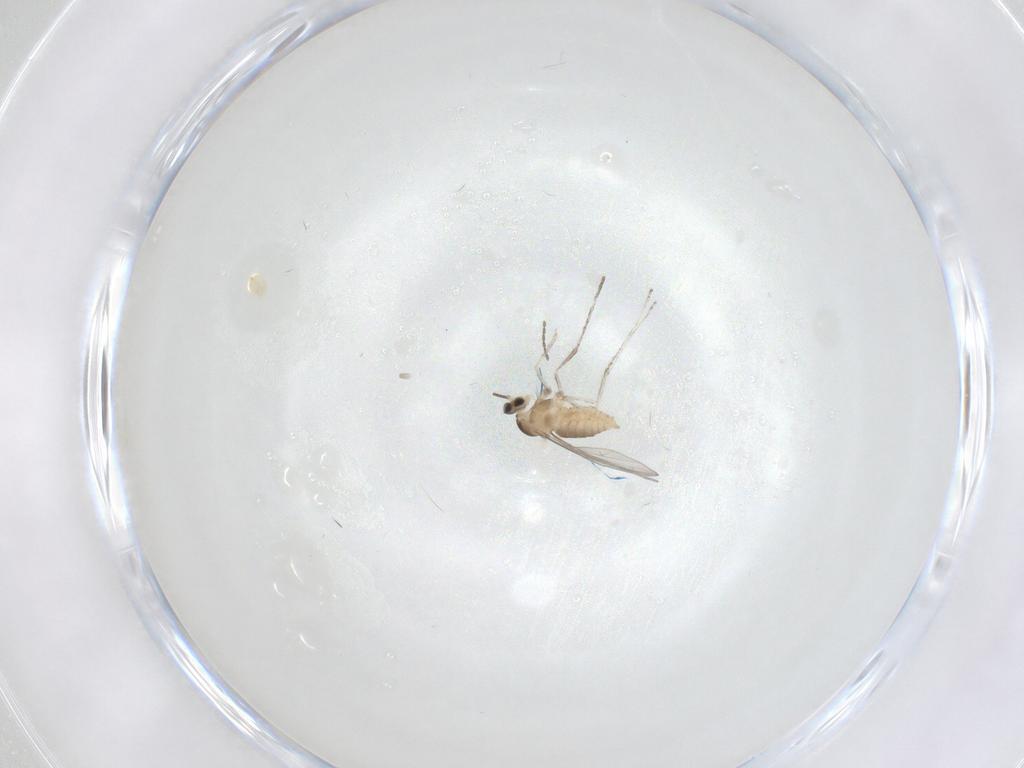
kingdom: Animalia
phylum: Arthropoda
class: Insecta
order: Diptera
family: Cecidomyiidae
